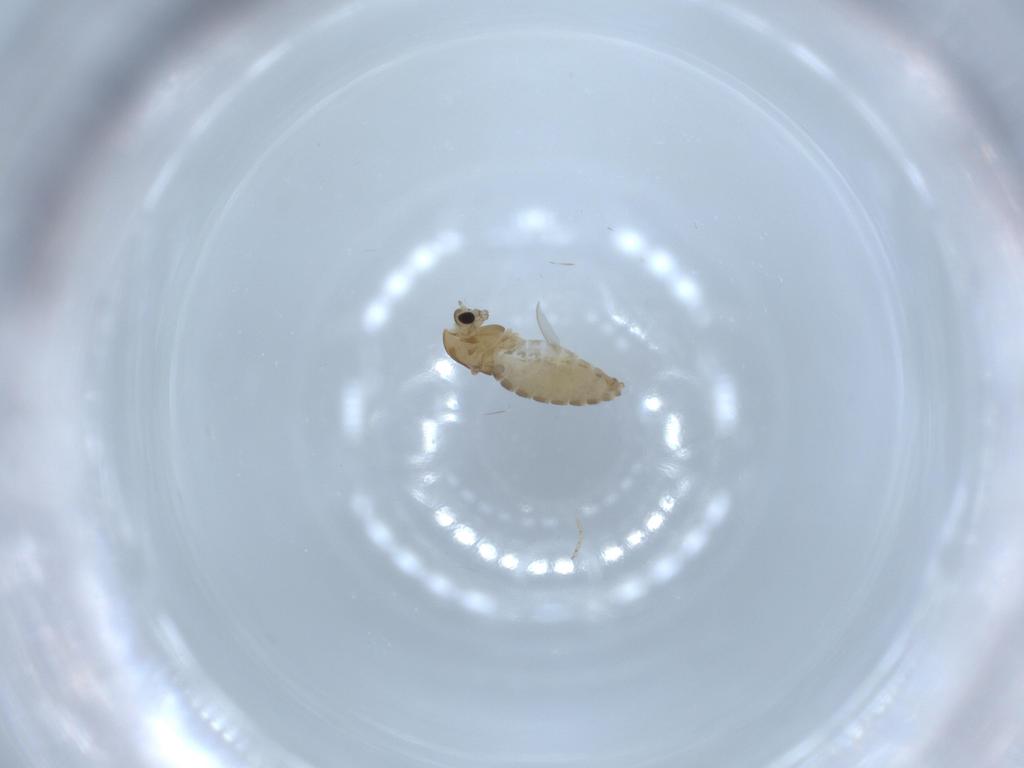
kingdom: Animalia
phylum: Arthropoda
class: Insecta
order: Diptera
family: Chironomidae
